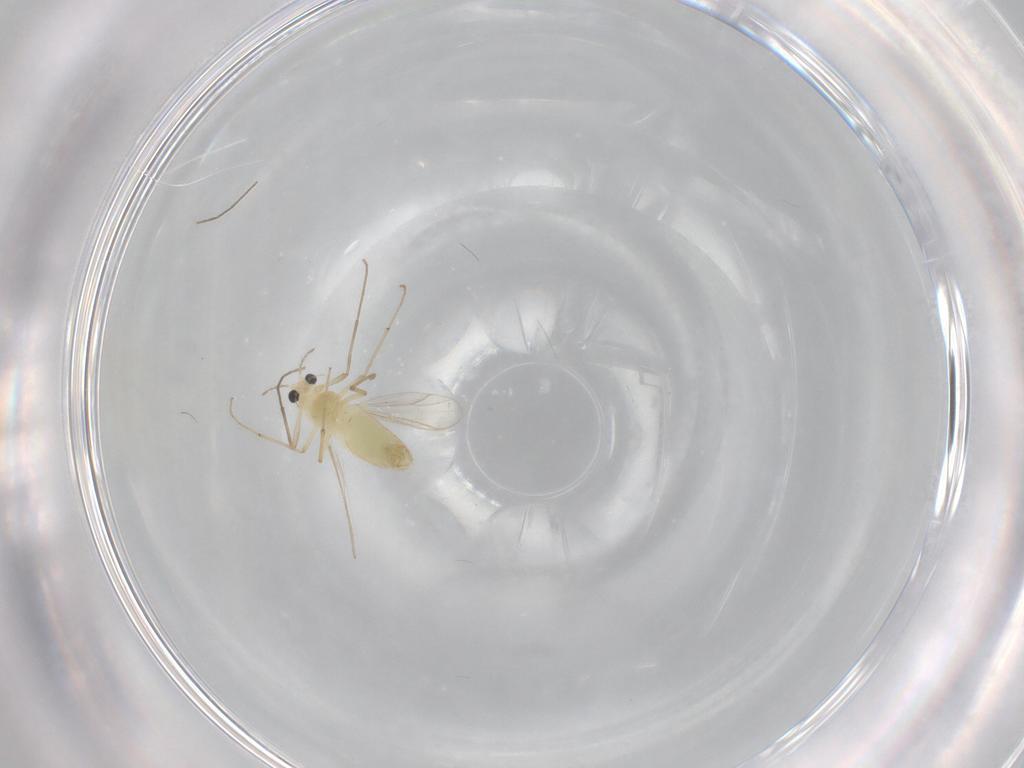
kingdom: Animalia
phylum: Arthropoda
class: Insecta
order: Diptera
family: Chironomidae
